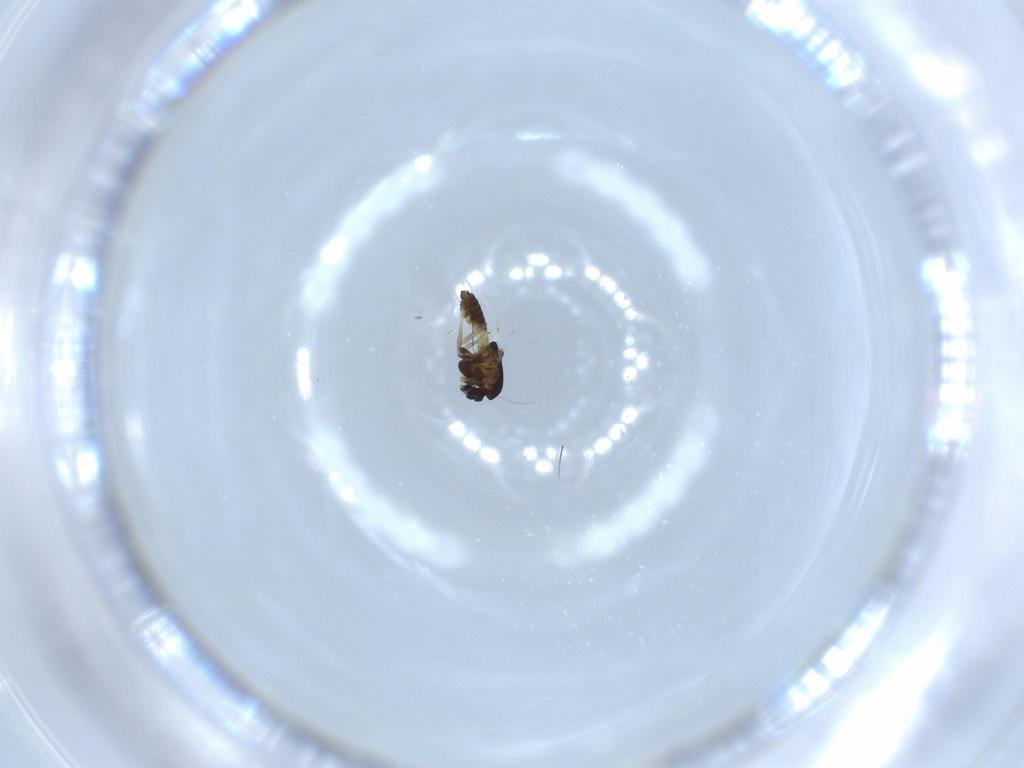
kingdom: Animalia
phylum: Arthropoda
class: Insecta
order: Diptera
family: Chironomidae
